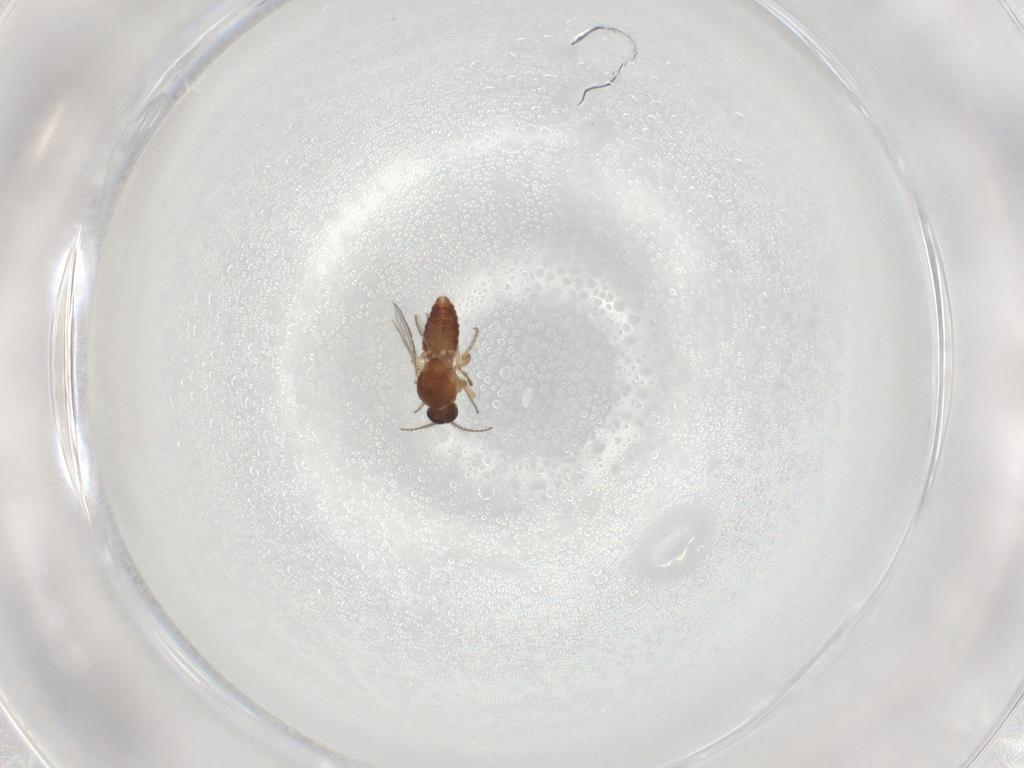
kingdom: Animalia
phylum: Arthropoda
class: Insecta
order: Diptera
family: Ceratopogonidae
